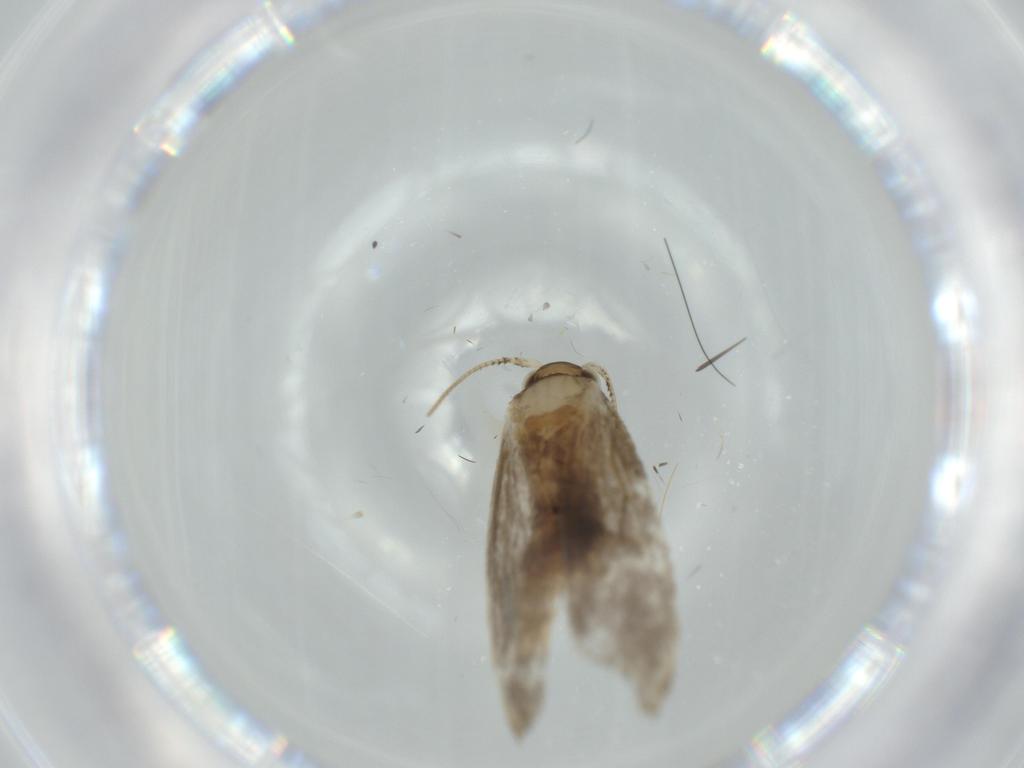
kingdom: Animalia
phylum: Arthropoda
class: Insecta
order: Lepidoptera
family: Tineidae
